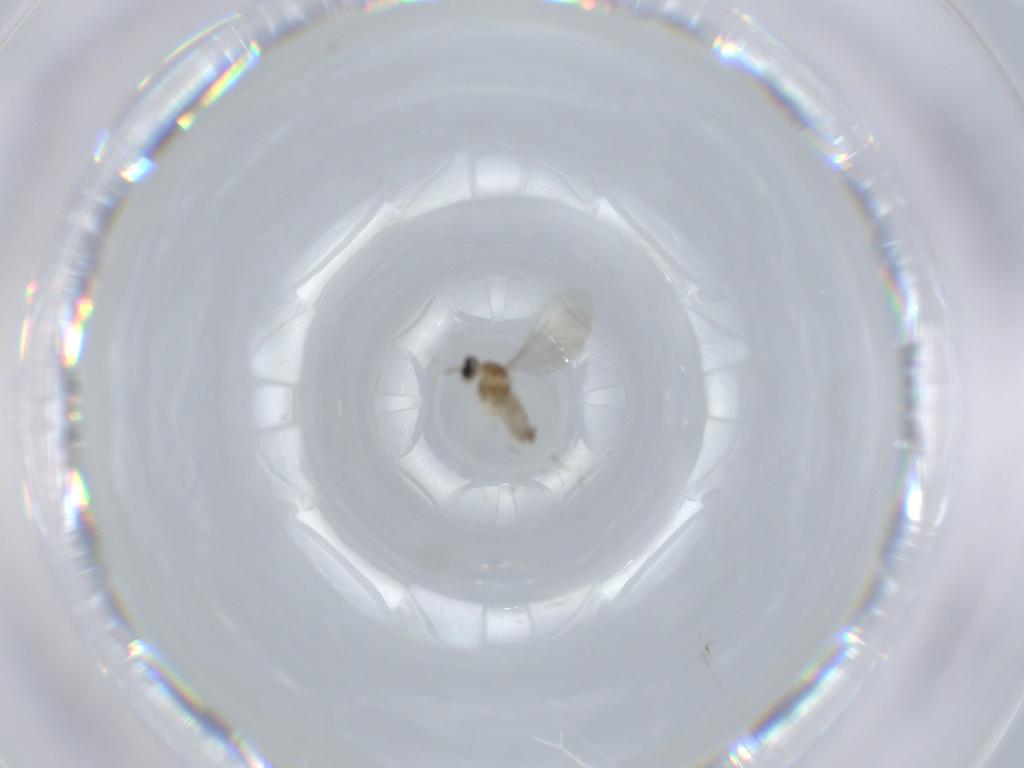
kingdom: Animalia
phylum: Arthropoda
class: Insecta
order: Diptera
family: Cecidomyiidae
